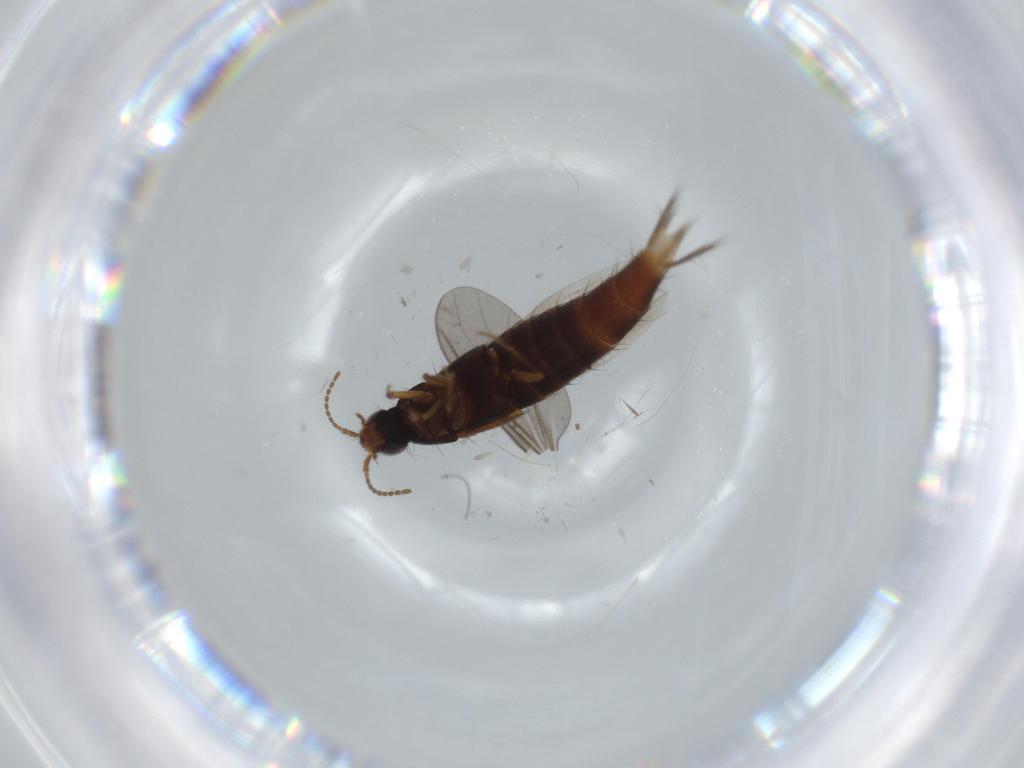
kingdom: Animalia
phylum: Arthropoda
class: Insecta
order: Coleoptera
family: Staphylinidae
